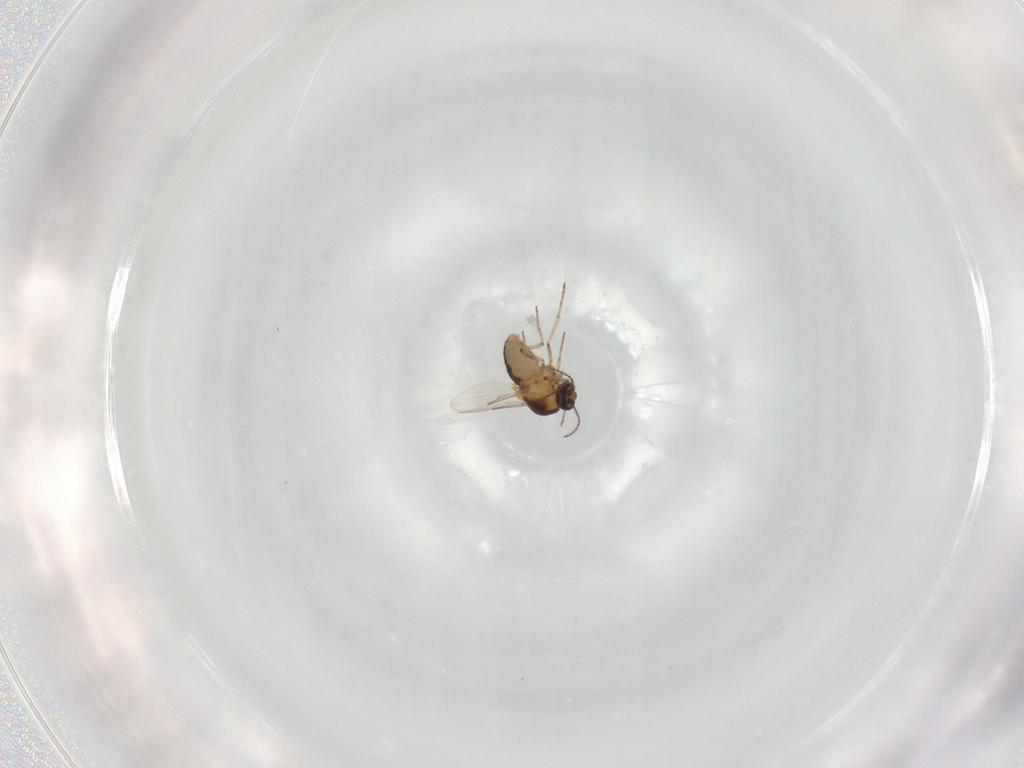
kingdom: Animalia
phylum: Arthropoda
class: Insecta
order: Diptera
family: Ceratopogonidae
